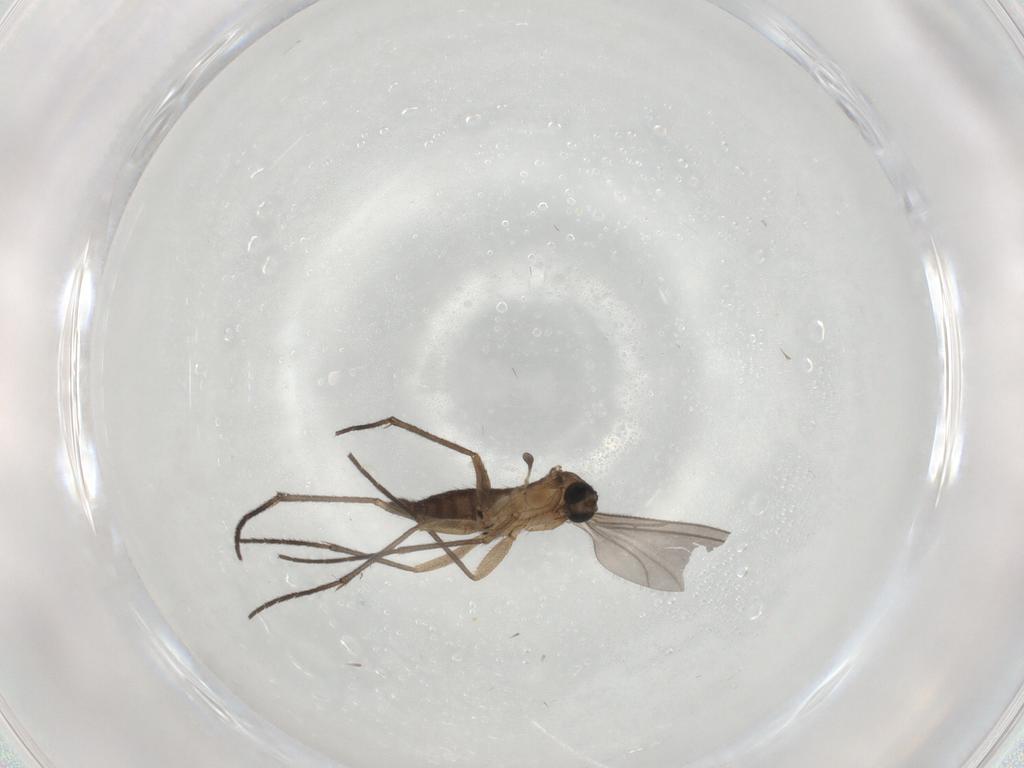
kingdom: Animalia
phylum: Arthropoda
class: Insecta
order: Diptera
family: Sciaridae
